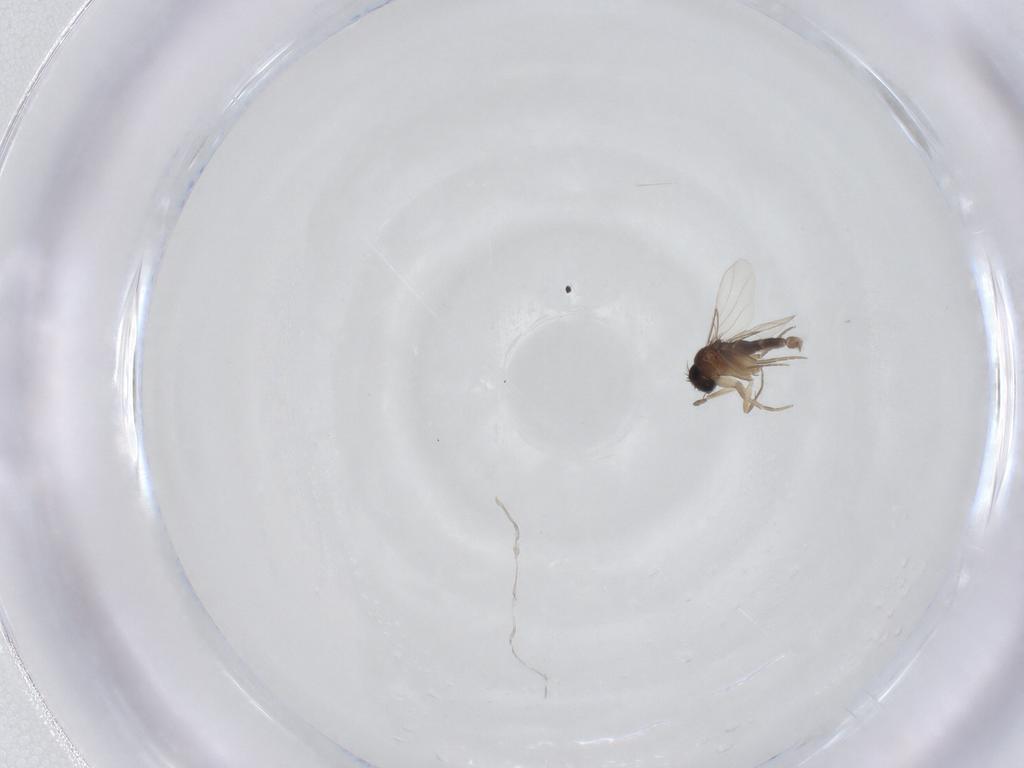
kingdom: Animalia
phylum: Arthropoda
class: Insecta
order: Diptera
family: Phoridae
